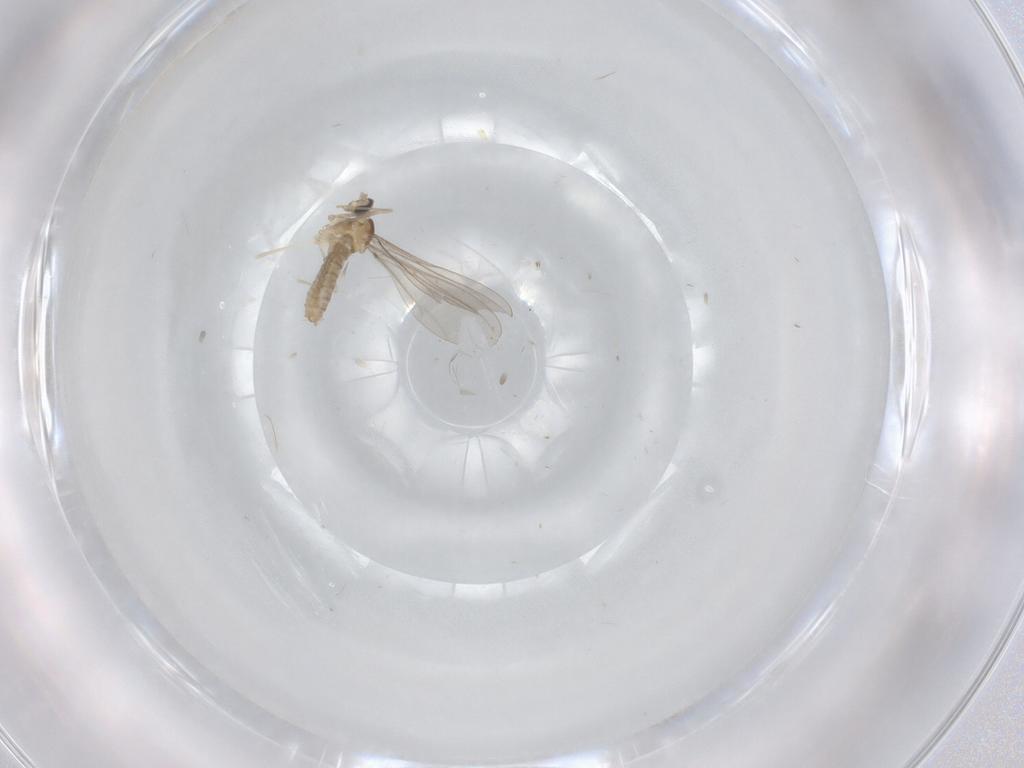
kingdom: Animalia
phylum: Arthropoda
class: Insecta
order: Diptera
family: Cecidomyiidae
